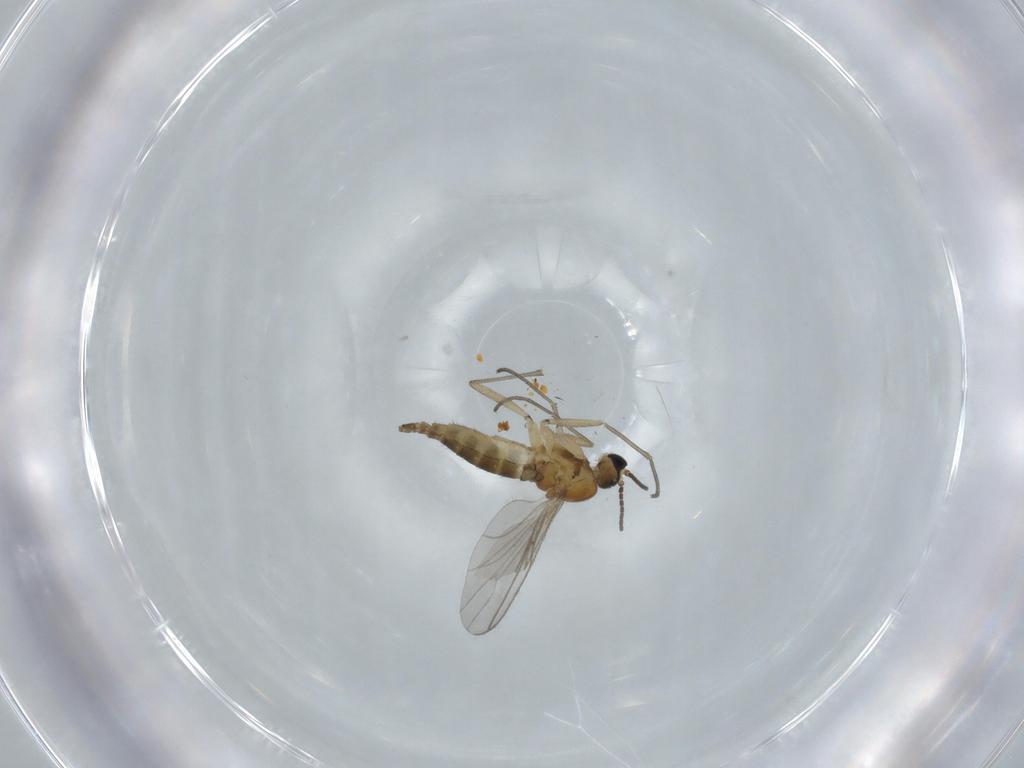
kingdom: Animalia
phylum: Arthropoda
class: Insecta
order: Diptera
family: Sciaridae
